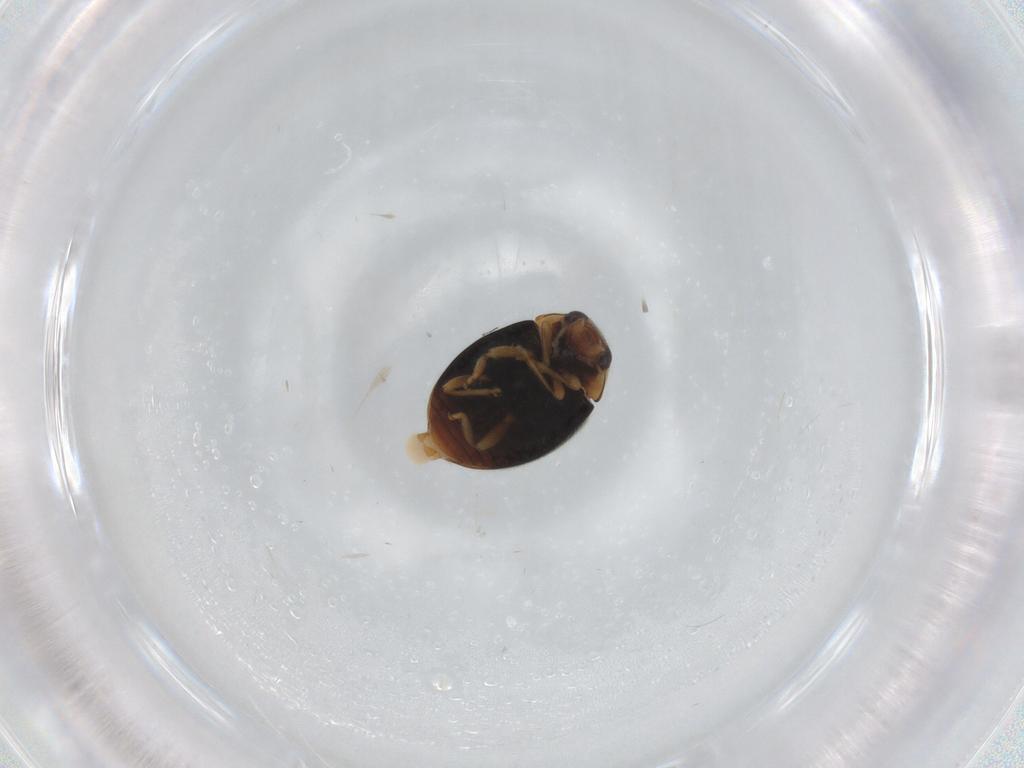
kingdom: Animalia
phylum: Arthropoda
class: Insecta
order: Coleoptera
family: Coccinellidae
